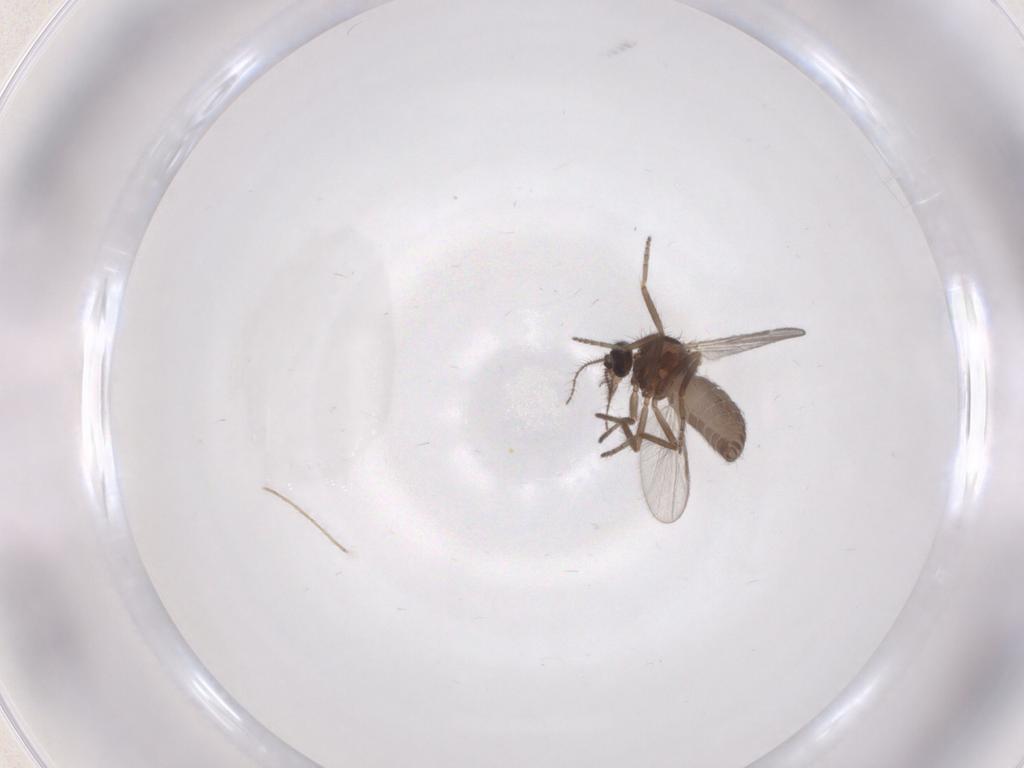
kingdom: Animalia
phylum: Arthropoda
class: Insecta
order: Diptera
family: Ceratopogonidae
